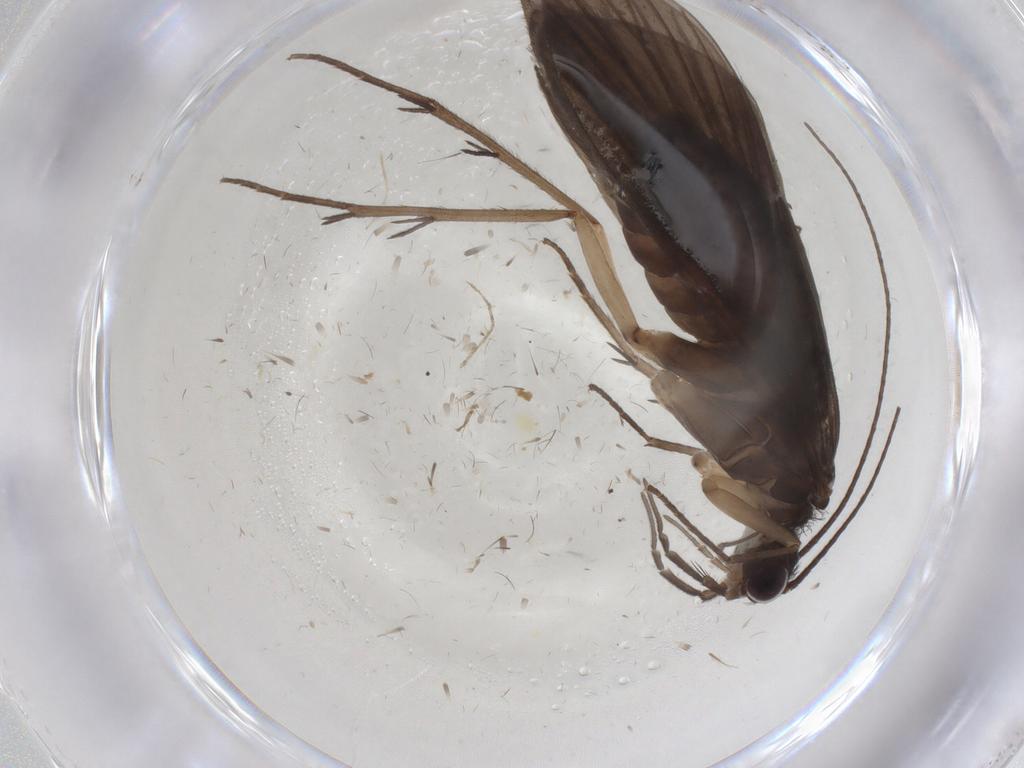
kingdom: Animalia
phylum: Arthropoda
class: Insecta
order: Trichoptera
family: Philopotamidae
